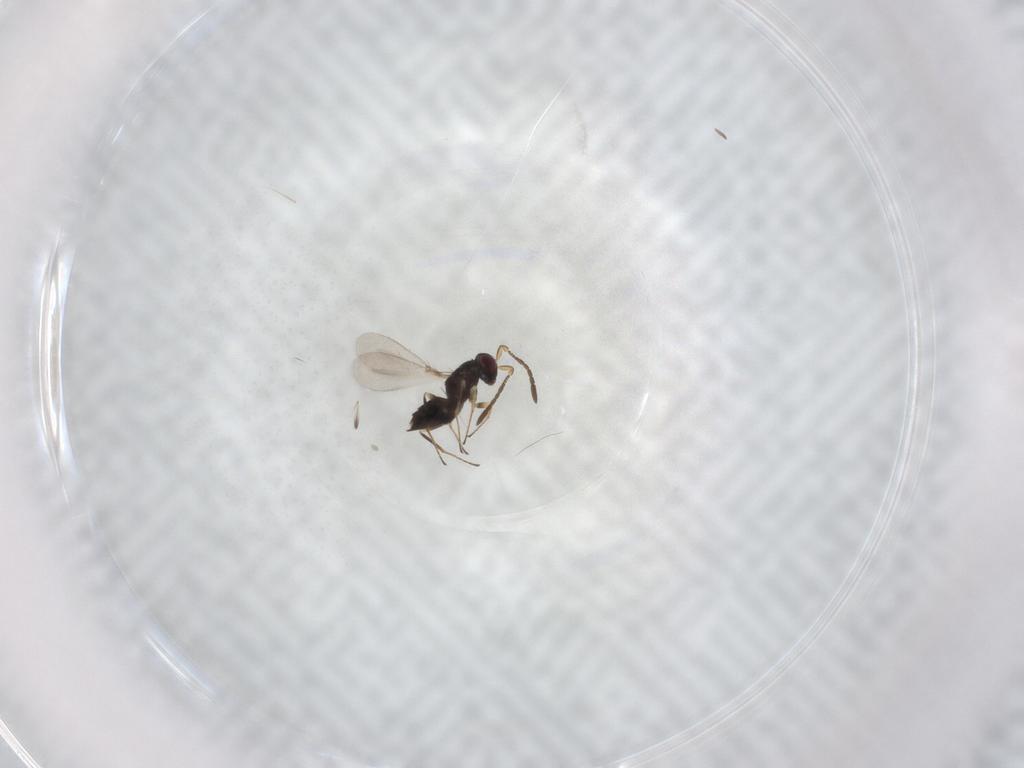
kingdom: Animalia
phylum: Arthropoda
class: Insecta
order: Hymenoptera
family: Mymaridae
